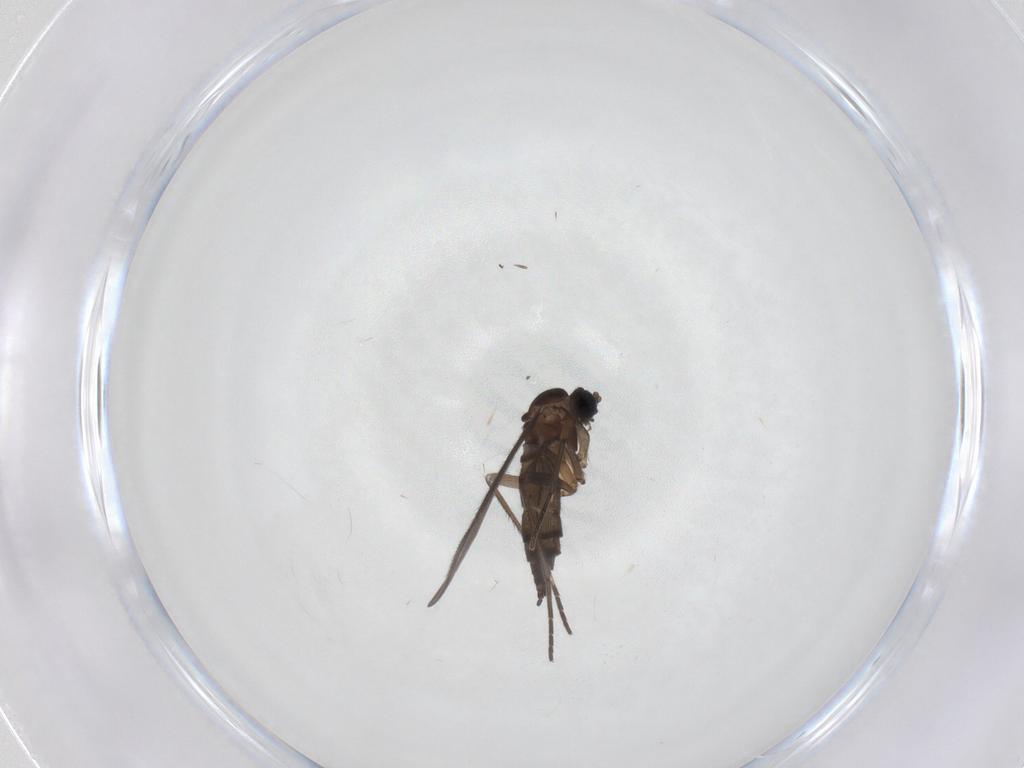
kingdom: Animalia
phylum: Arthropoda
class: Insecta
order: Diptera
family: Sciaridae
